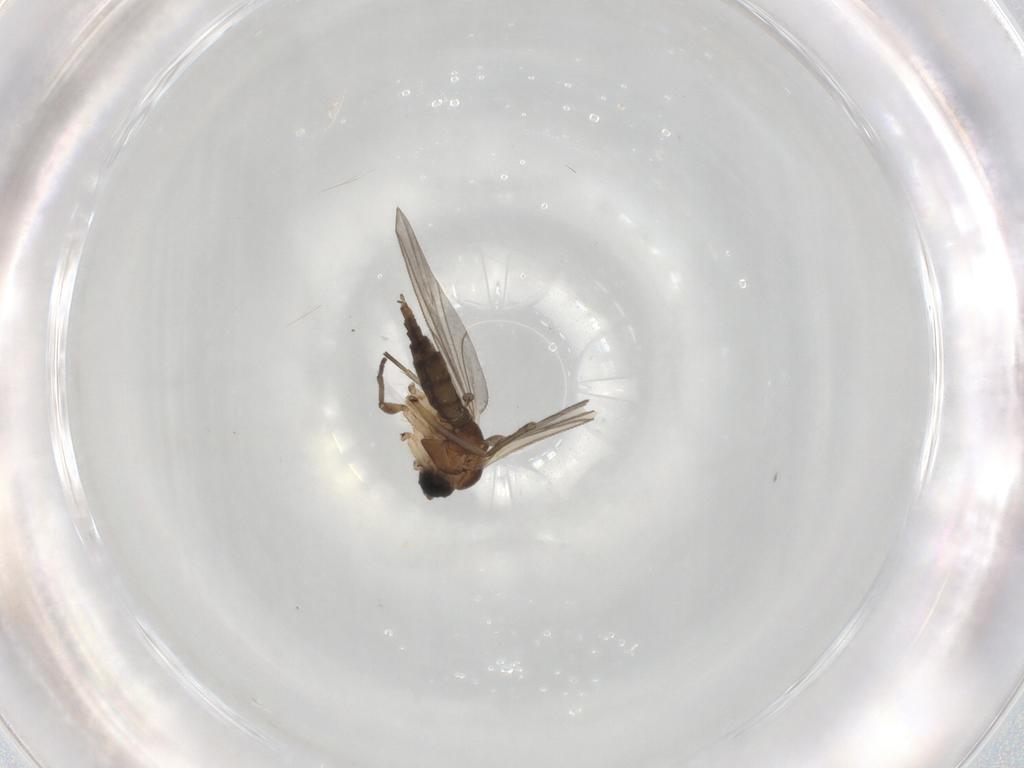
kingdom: Animalia
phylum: Arthropoda
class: Insecta
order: Diptera
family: Sciaridae
